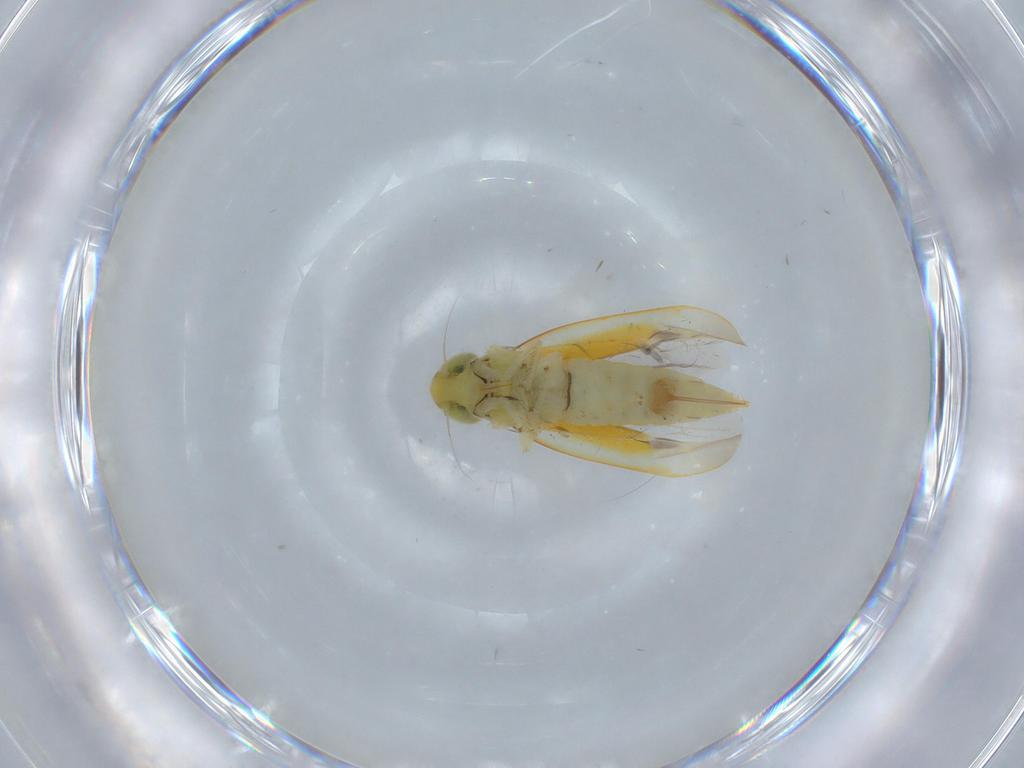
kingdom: Animalia
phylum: Arthropoda
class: Insecta
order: Hemiptera
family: Cicadellidae
